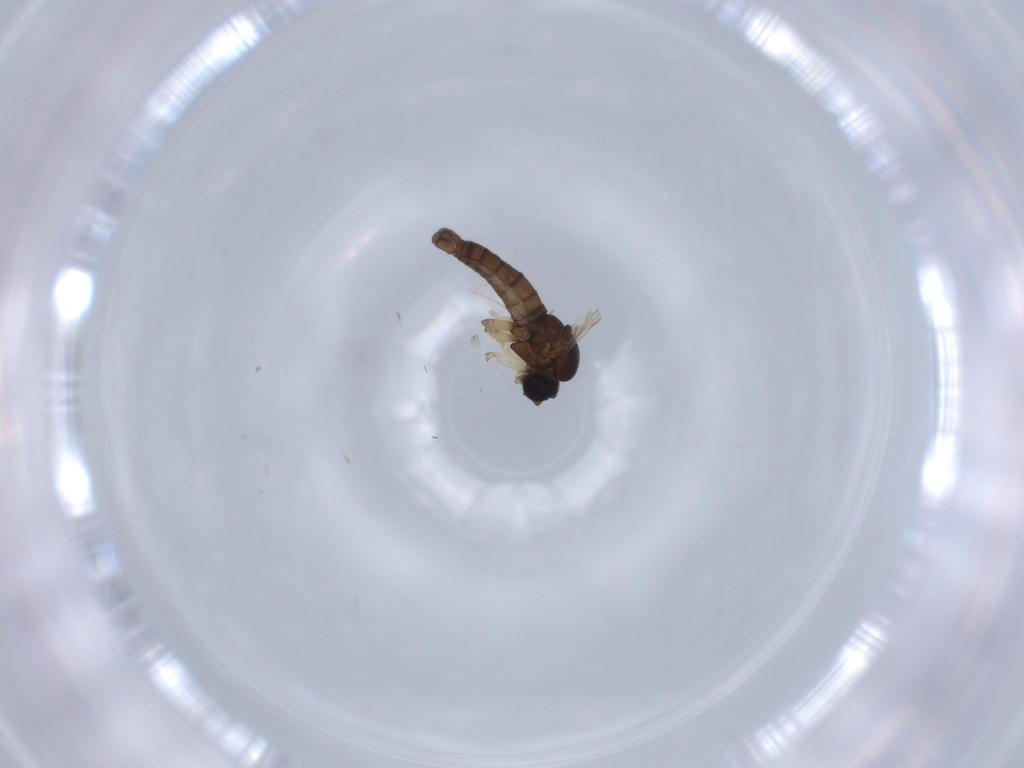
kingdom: Animalia
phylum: Arthropoda
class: Insecta
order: Diptera
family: Sciaridae
